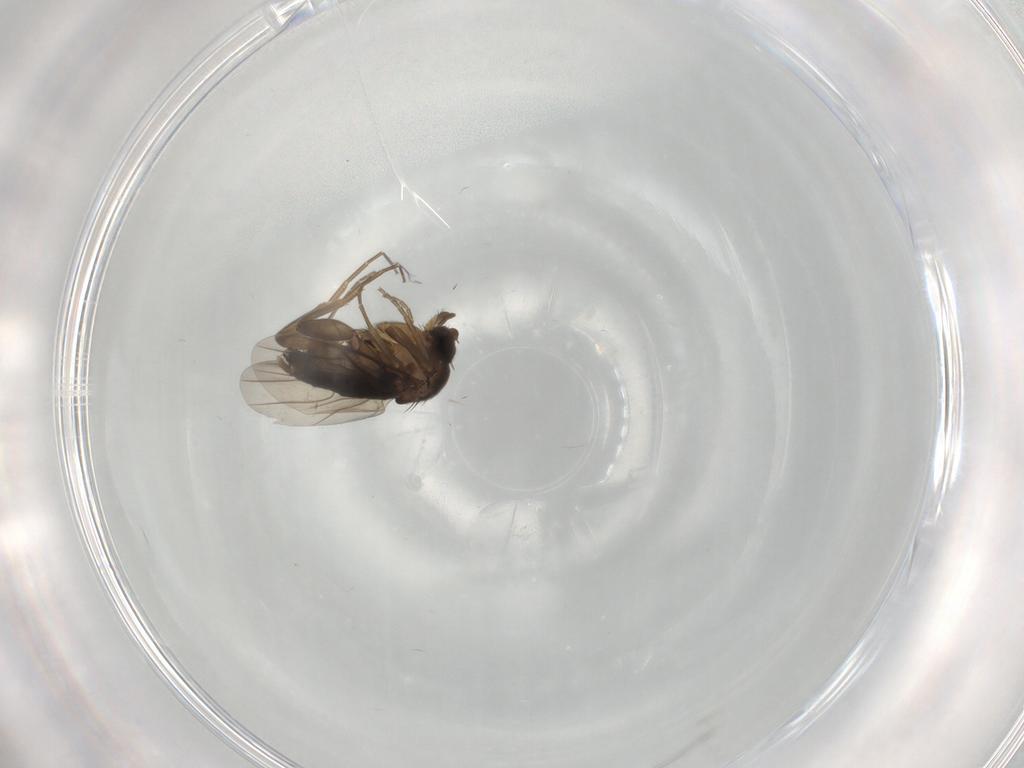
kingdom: Animalia
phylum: Arthropoda
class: Insecta
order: Diptera
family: Phoridae
